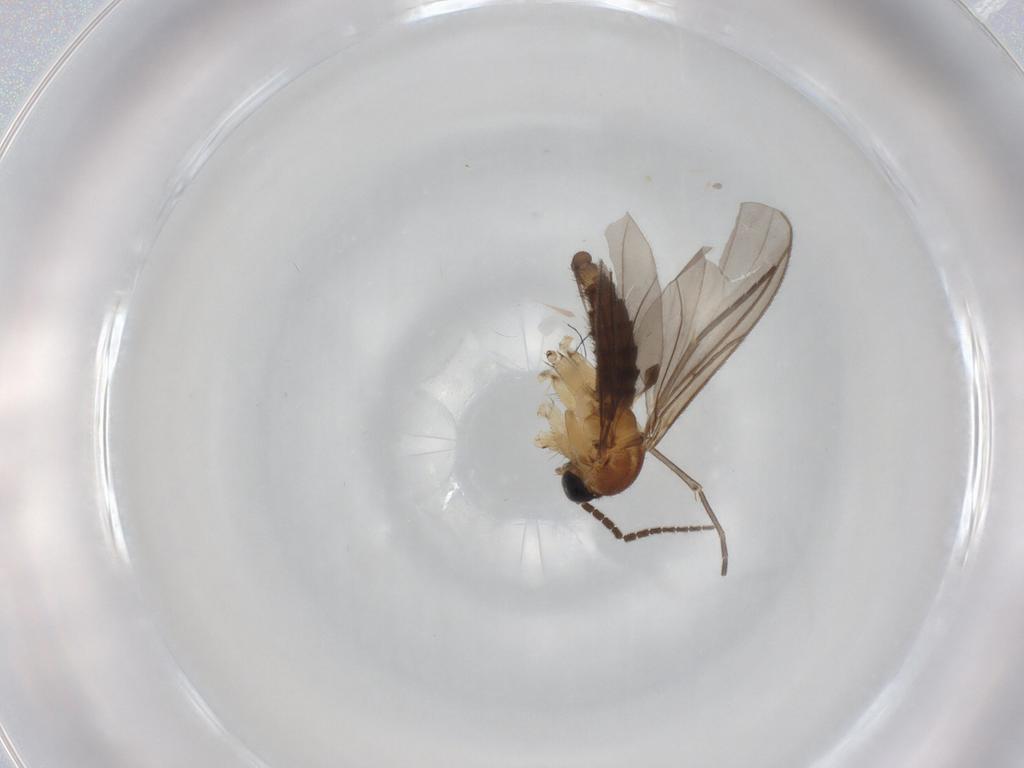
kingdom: Animalia
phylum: Arthropoda
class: Insecta
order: Diptera
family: Sciaridae
